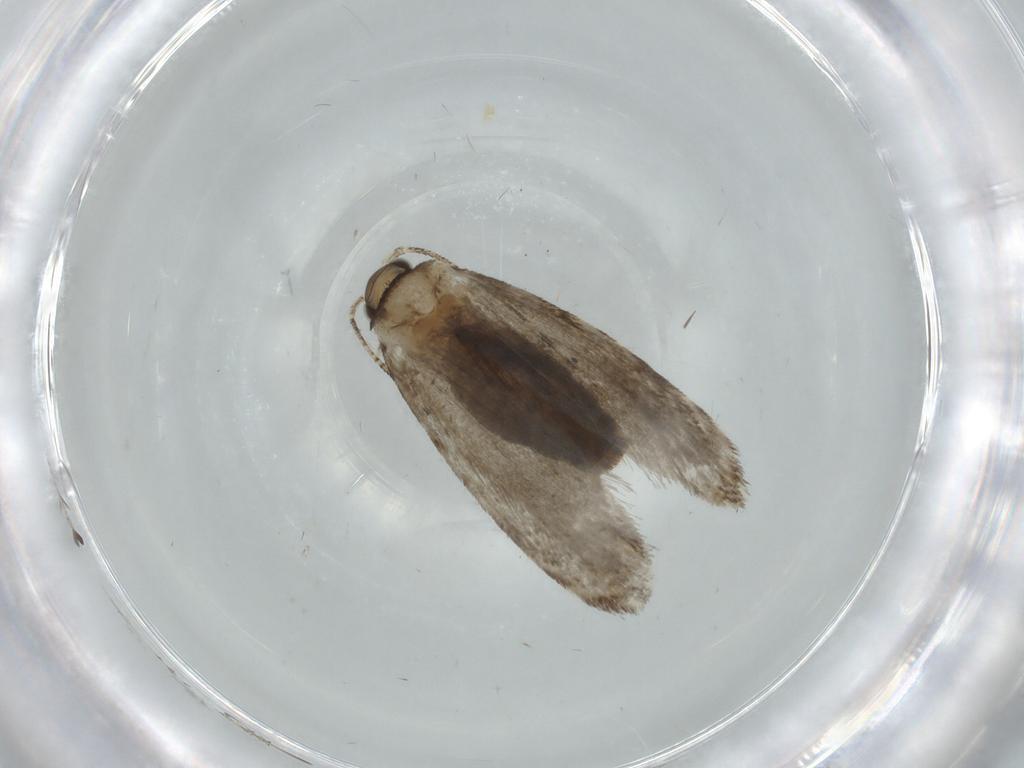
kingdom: Animalia
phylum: Arthropoda
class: Insecta
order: Lepidoptera
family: Tineidae
